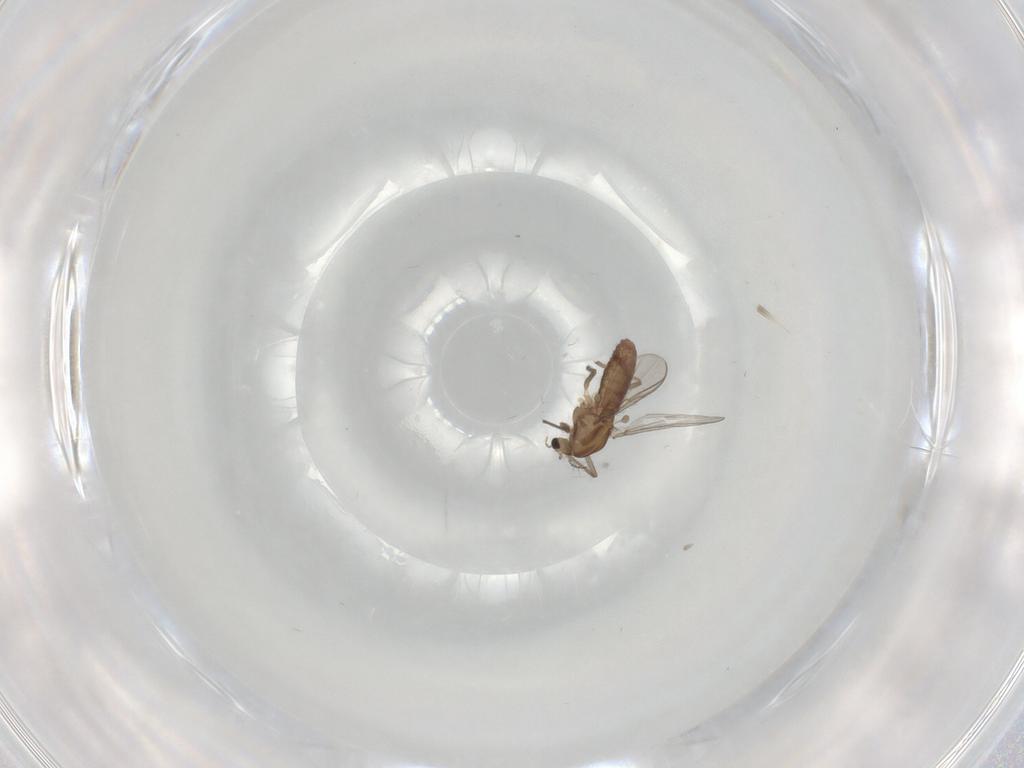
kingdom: Animalia
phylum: Arthropoda
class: Insecta
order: Diptera
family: Chironomidae
